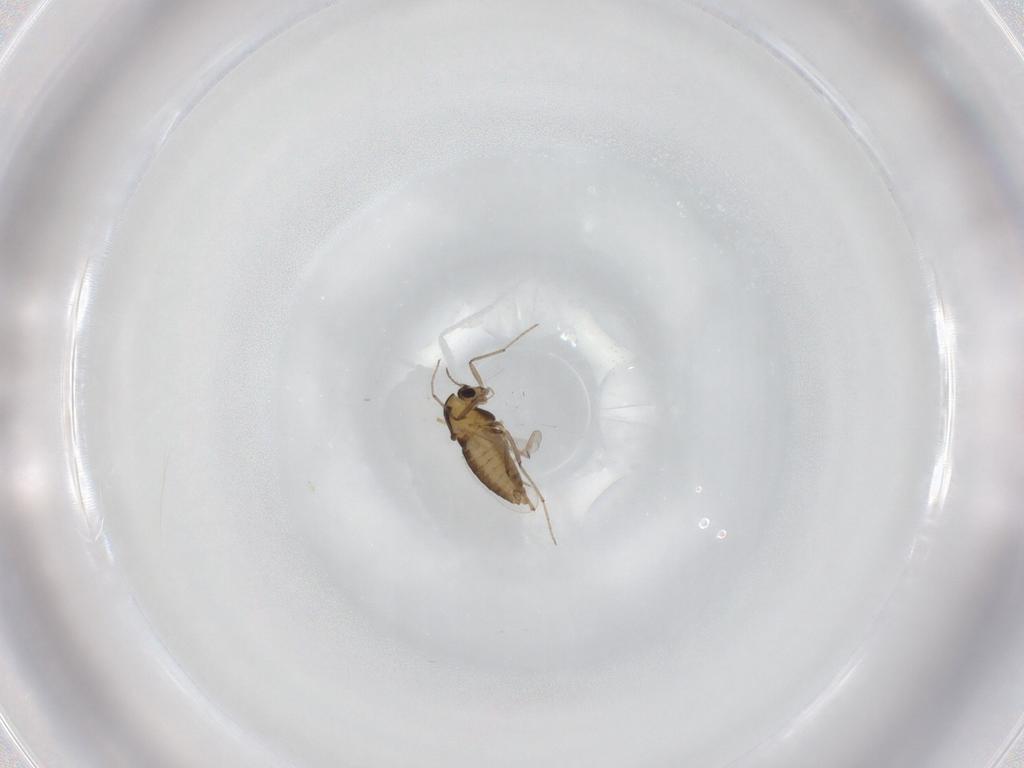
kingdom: Animalia
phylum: Arthropoda
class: Insecta
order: Diptera
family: Chironomidae
